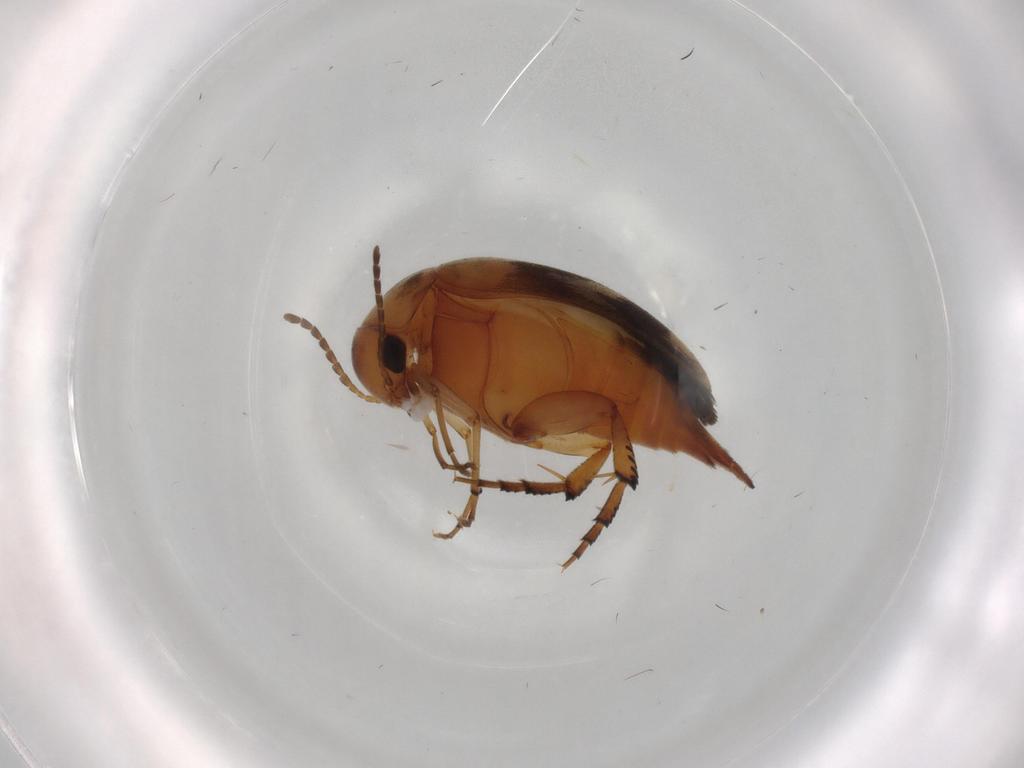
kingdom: Animalia
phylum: Arthropoda
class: Insecta
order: Coleoptera
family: Mordellidae
